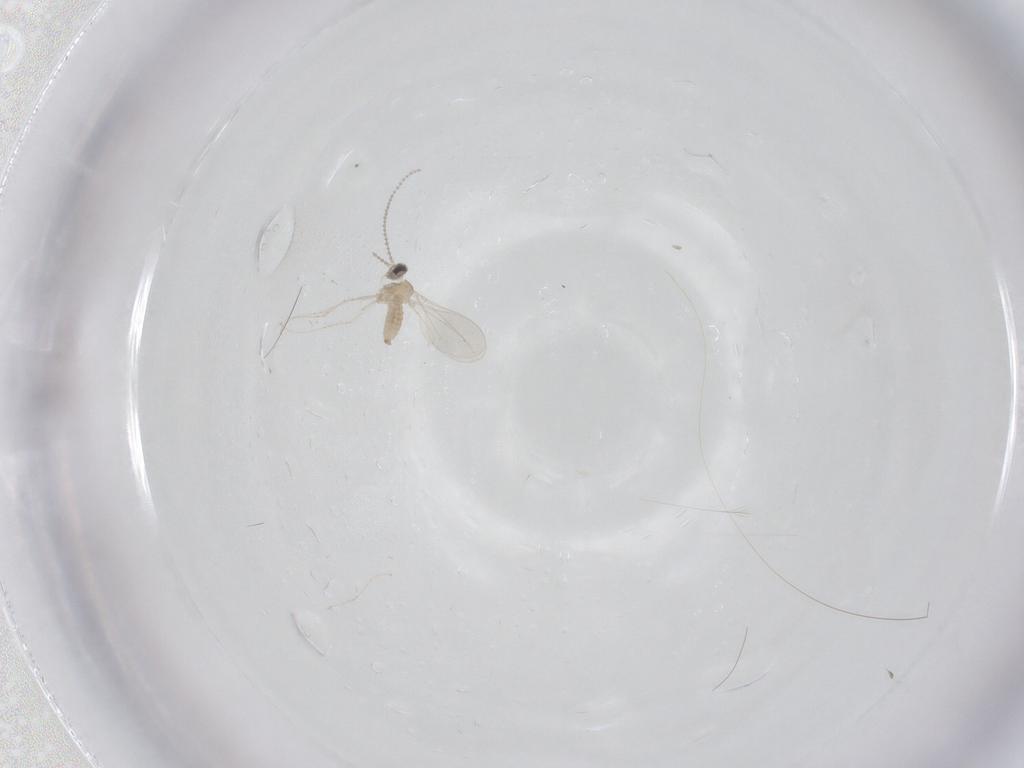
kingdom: Animalia
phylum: Arthropoda
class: Insecta
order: Diptera
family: Cecidomyiidae
